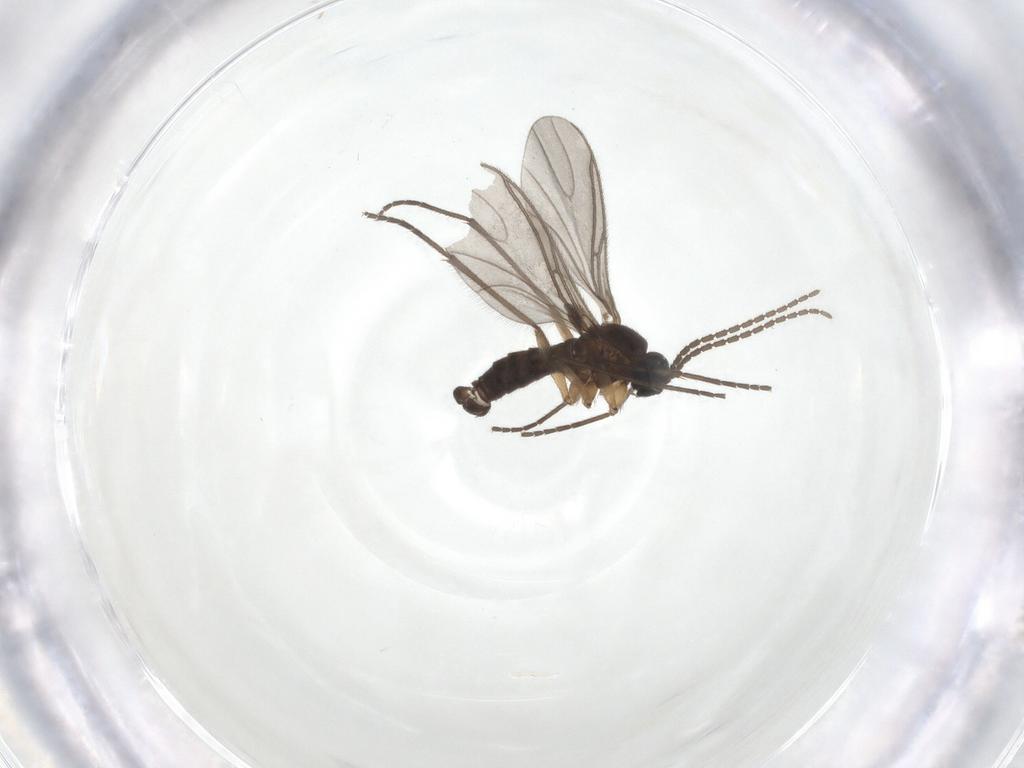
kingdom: Animalia
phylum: Arthropoda
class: Insecta
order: Diptera
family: Sciaridae
